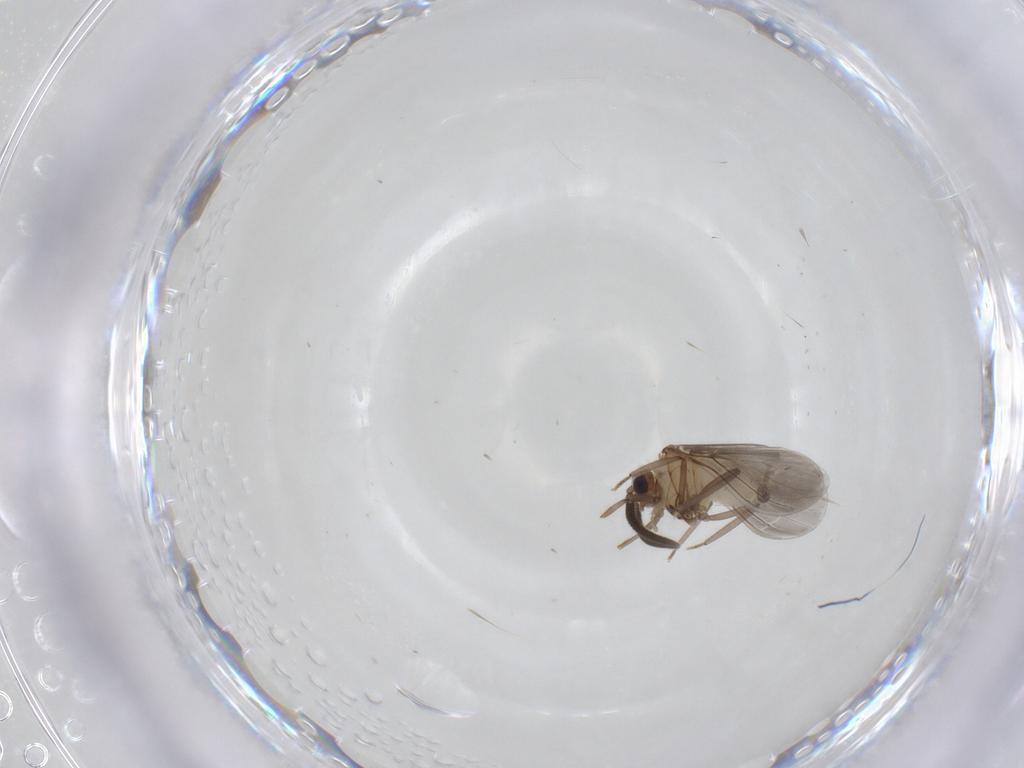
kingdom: Animalia
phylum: Arthropoda
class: Insecta
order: Neuroptera
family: Coniopterygidae
